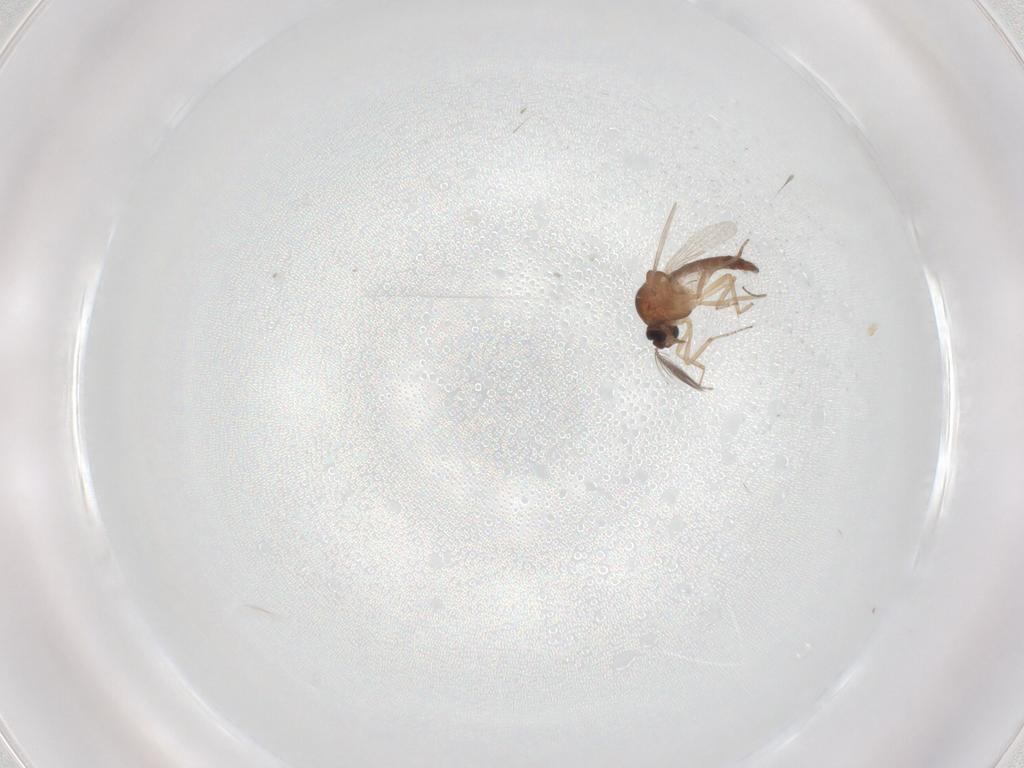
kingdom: Animalia
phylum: Arthropoda
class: Insecta
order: Diptera
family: Ceratopogonidae
